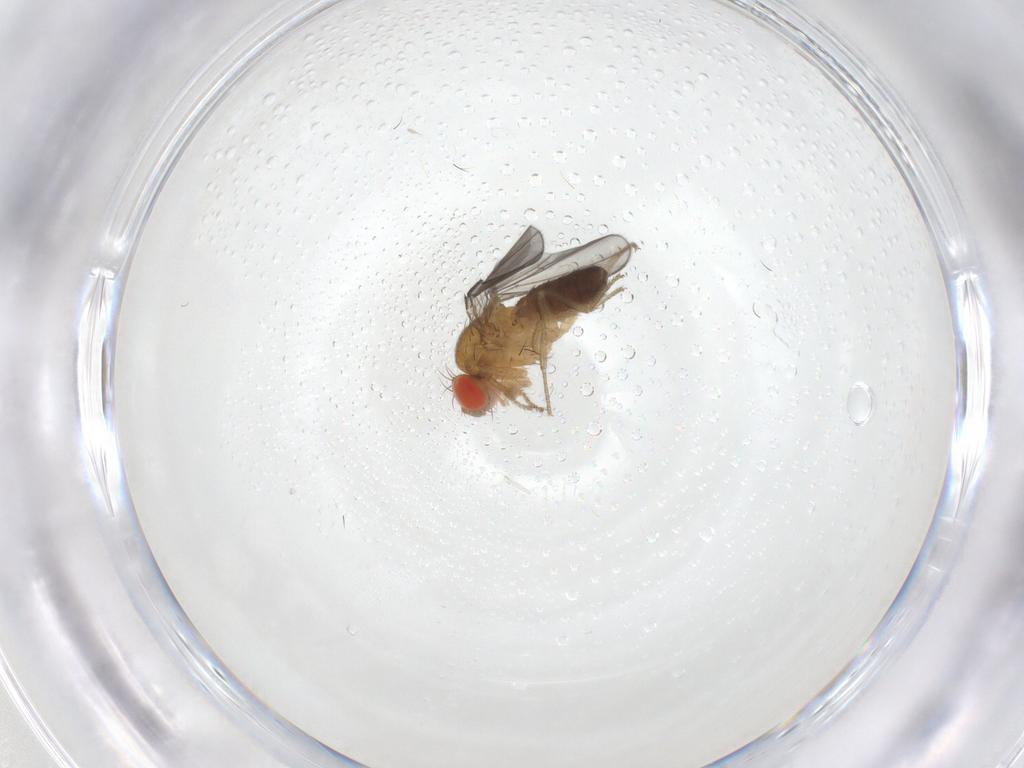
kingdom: Animalia
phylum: Arthropoda
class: Insecta
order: Diptera
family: Drosophilidae
